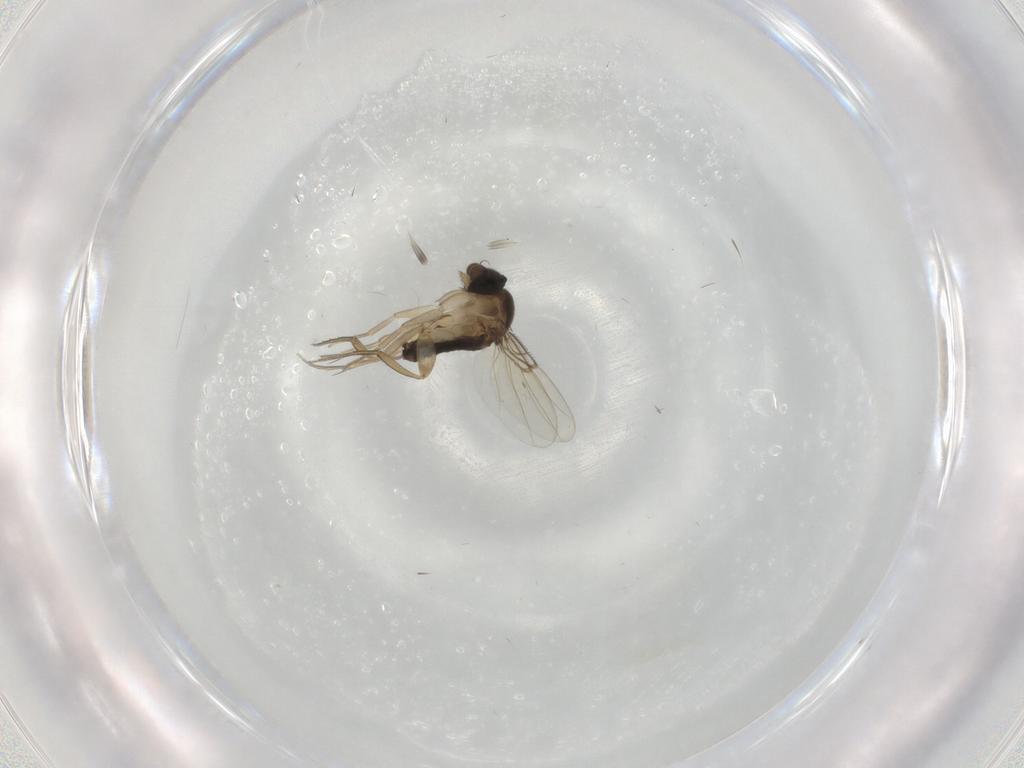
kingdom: Animalia
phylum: Arthropoda
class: Insecta
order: Diptera
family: Phoridae
